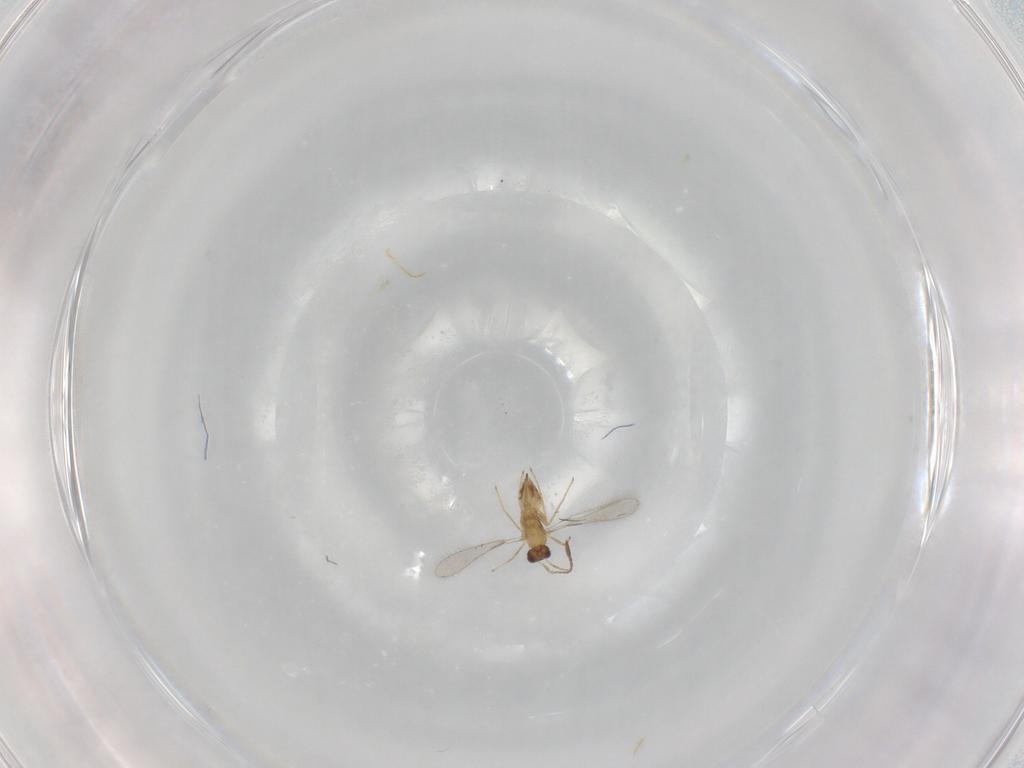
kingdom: Animalia
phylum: Arthropoda
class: Insecta
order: Hymenoptera
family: Mymaridae
